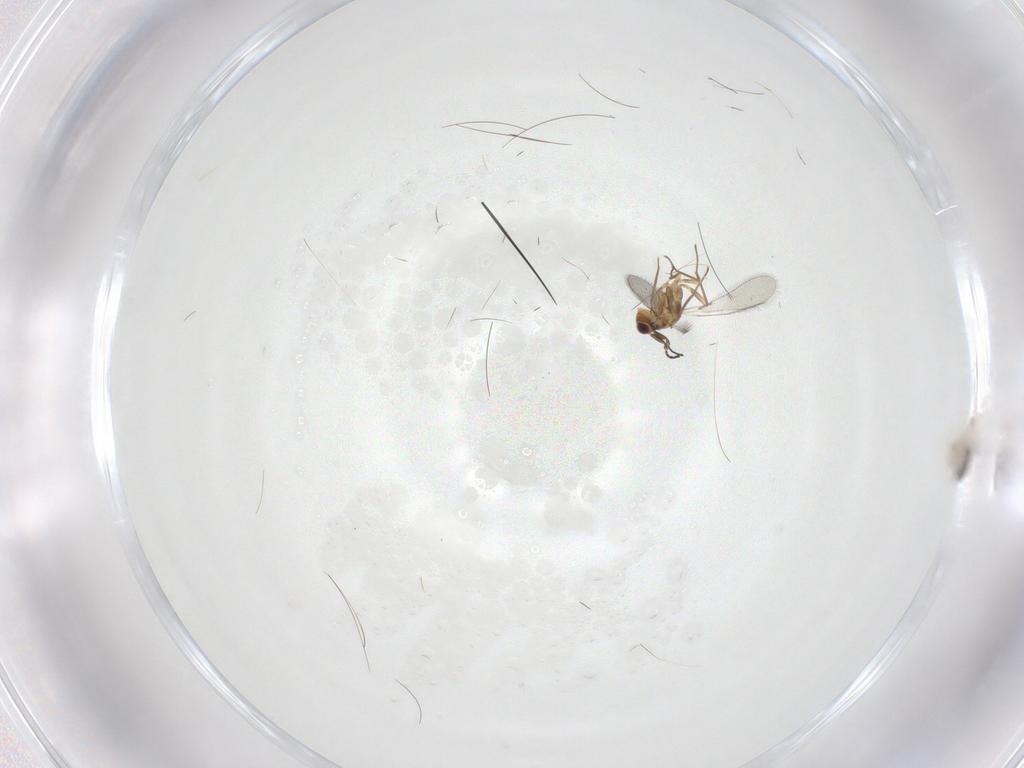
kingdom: Animalia
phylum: Arthropoda
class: Insecta
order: Hymenoptera
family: Mymaridae
